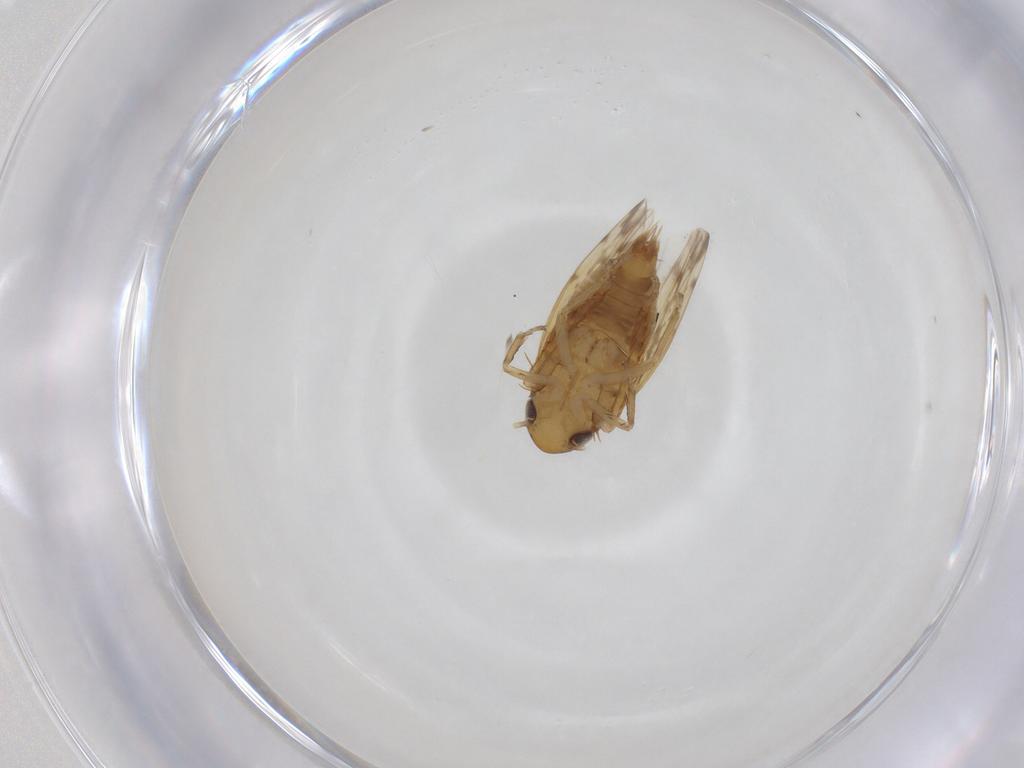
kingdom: Animalia
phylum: Arthropoda
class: Insecta
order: Hemiptera
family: Cicadellidae
